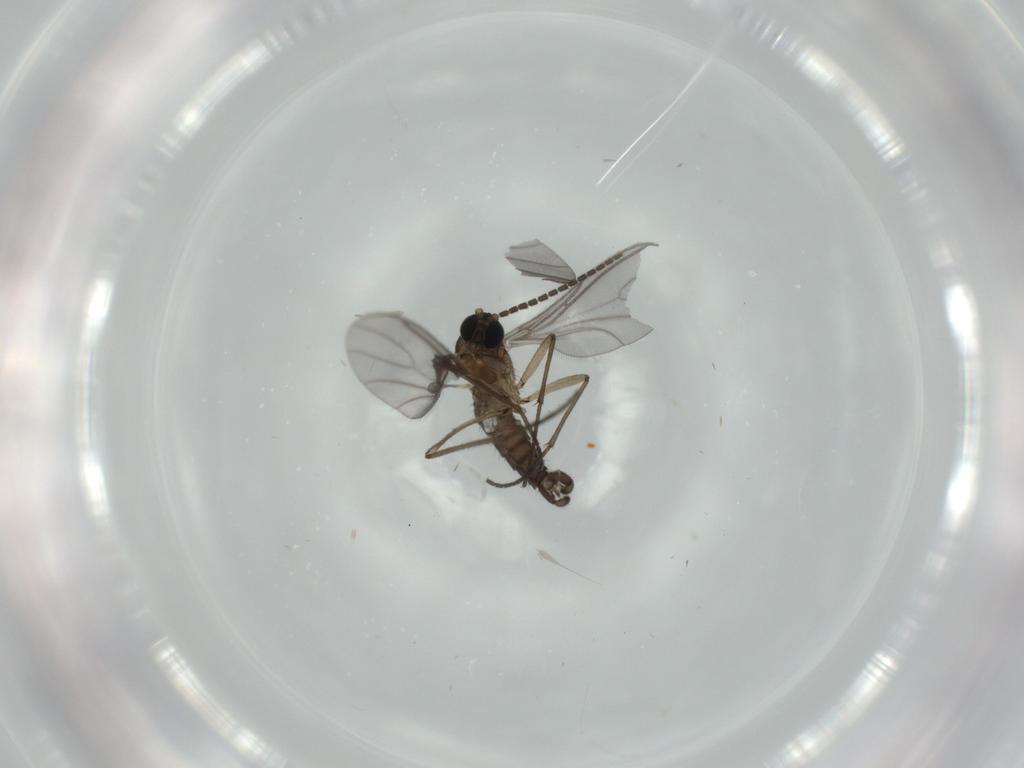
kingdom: Animalia
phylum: Arthropoda
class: Insecta
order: Diptera
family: Sciaridae
